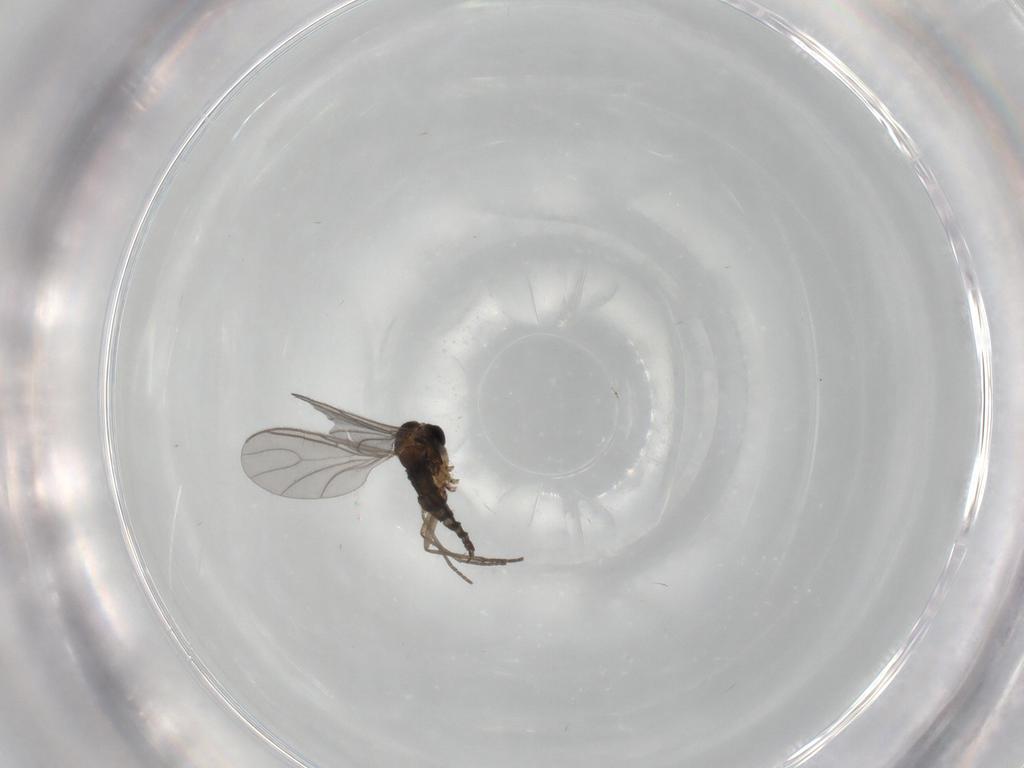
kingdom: Animalia
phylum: Arthropoda
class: Insecta
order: Diptera
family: Sciaridae
